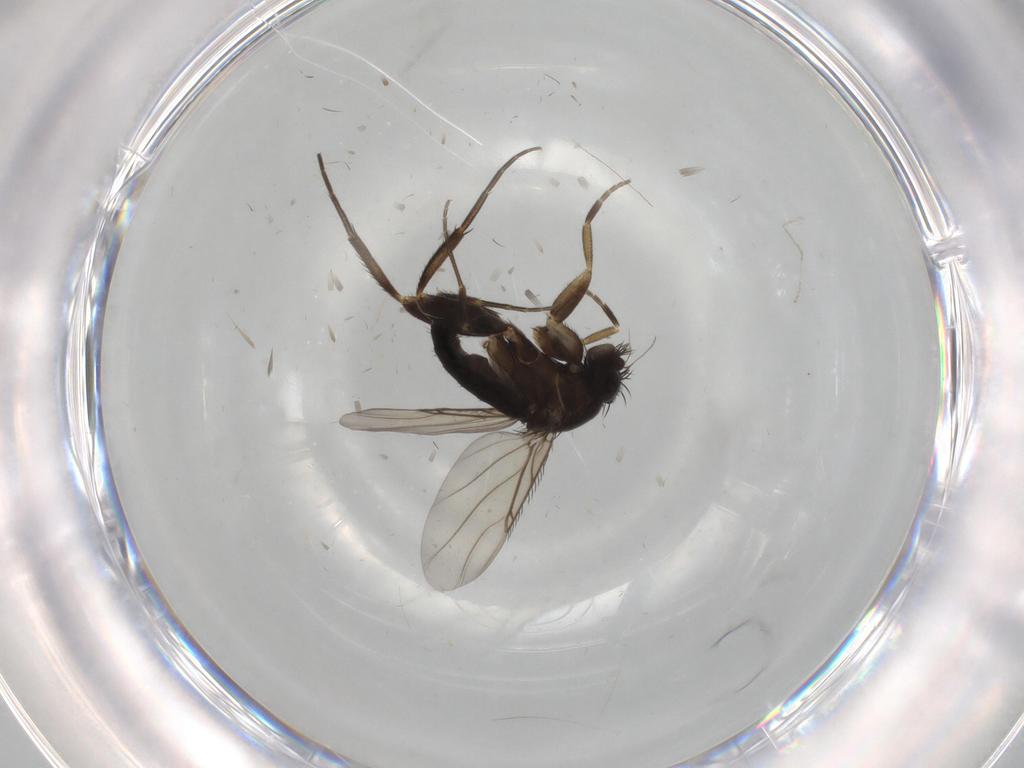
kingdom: Animalia
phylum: Arthropoda
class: Insecta
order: Diptera
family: Phoridae
